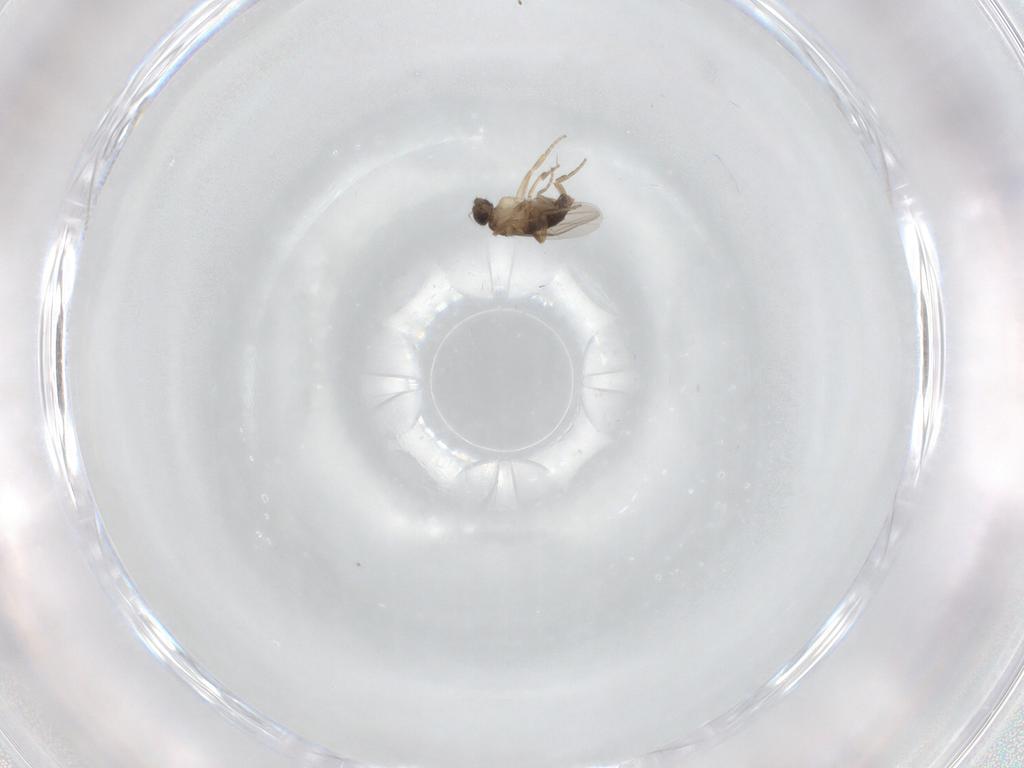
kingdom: Animalia
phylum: Arthropoda
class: Insecta
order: Diptera
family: Phoridae
